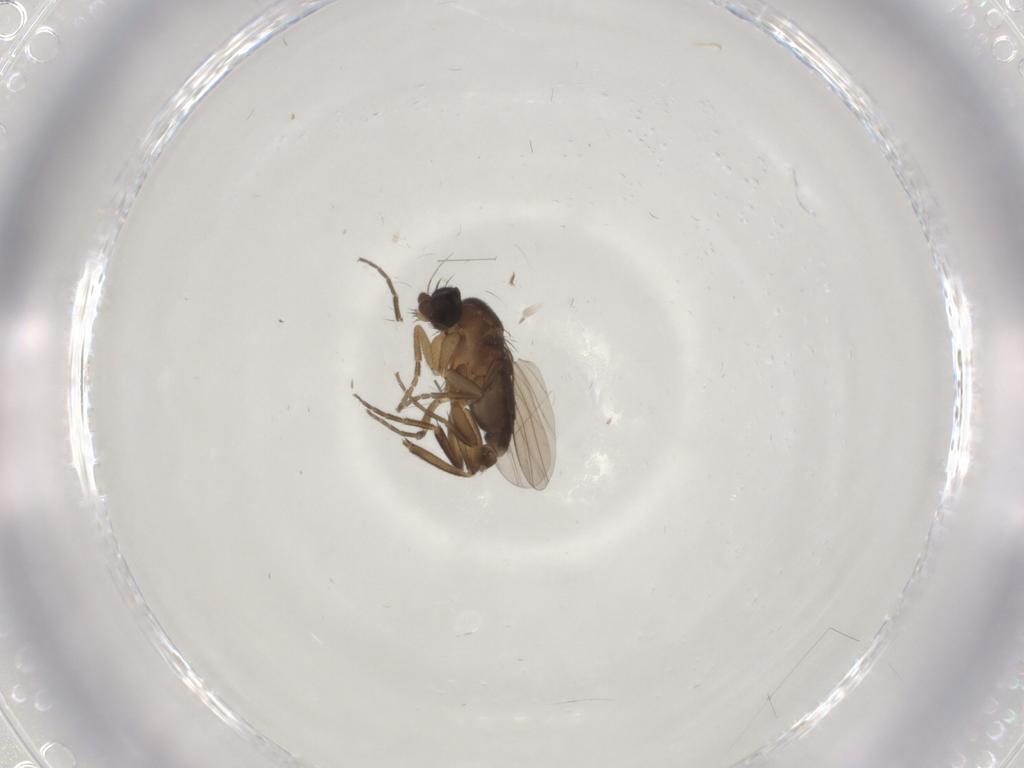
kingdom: Animalia
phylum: Arthropoda
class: Insecta
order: Diptera
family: Phoridae
